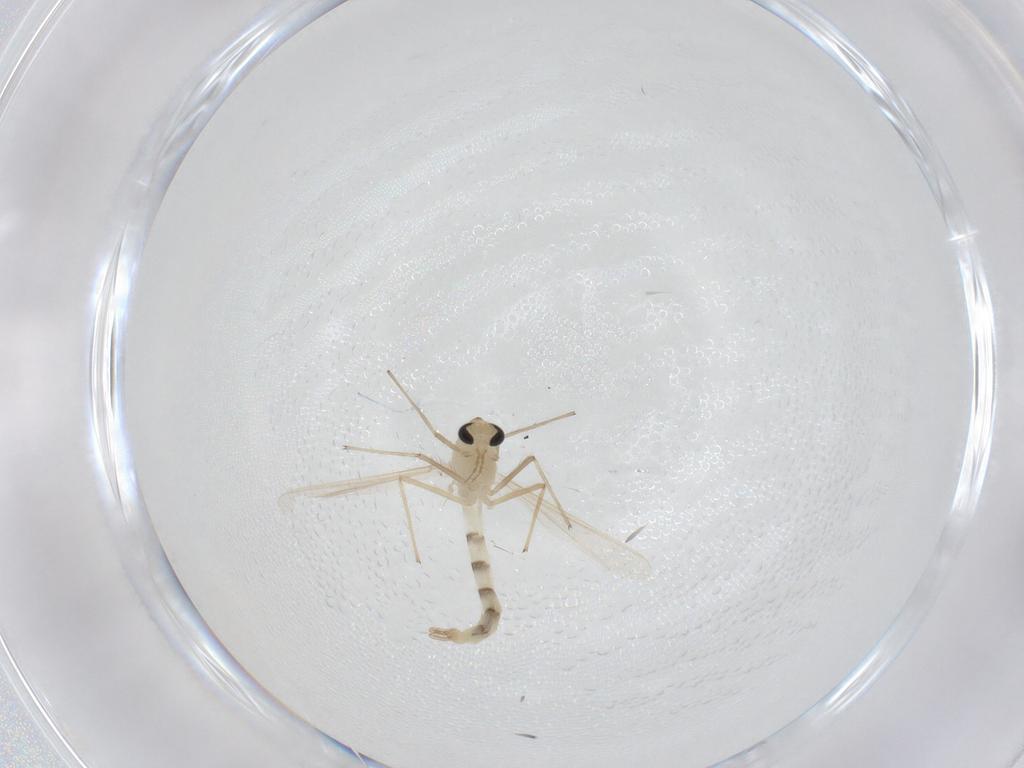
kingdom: Animalia
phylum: Arthropoda
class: Insecta
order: Diptera
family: Chironomidae
